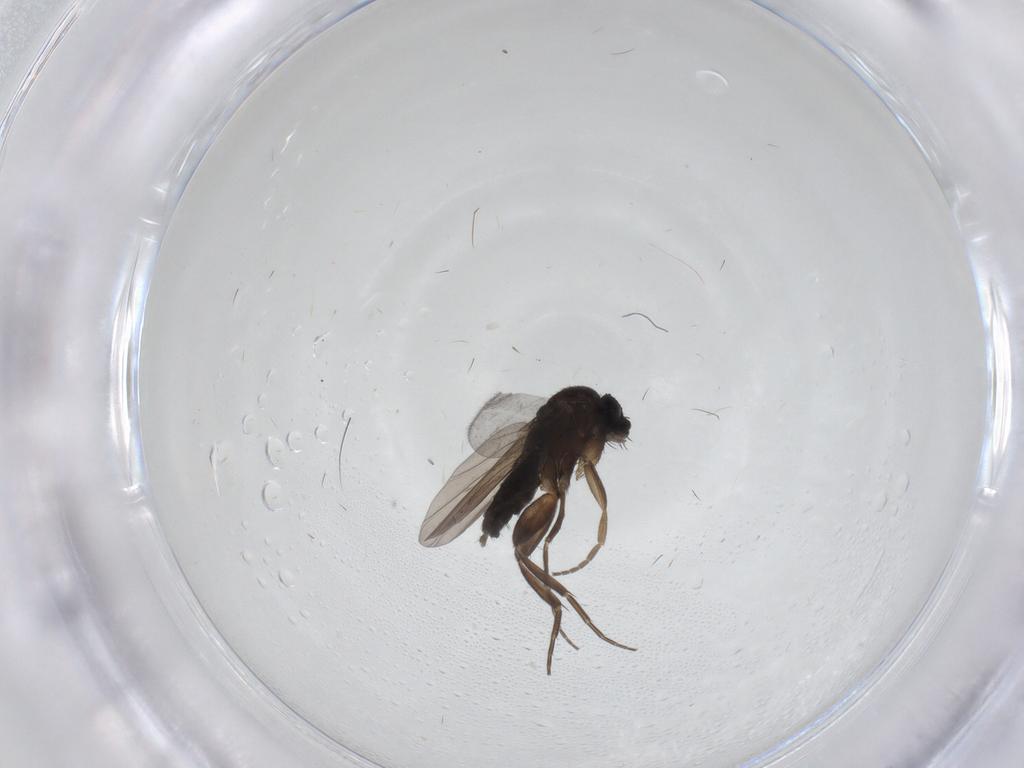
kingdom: Animalia
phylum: Arthropoda
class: Insecta
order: Diptera
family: Phoridae
